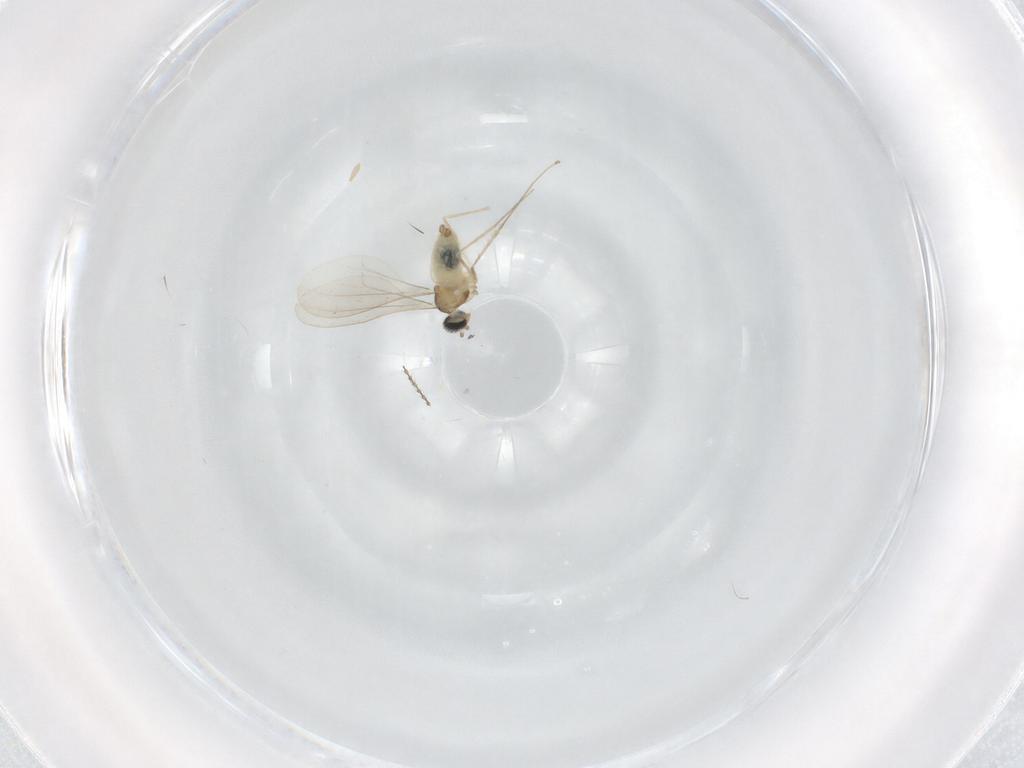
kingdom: Animalia
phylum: Arthropoda
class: Insecta
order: Diptera
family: Cecidomyiidae
